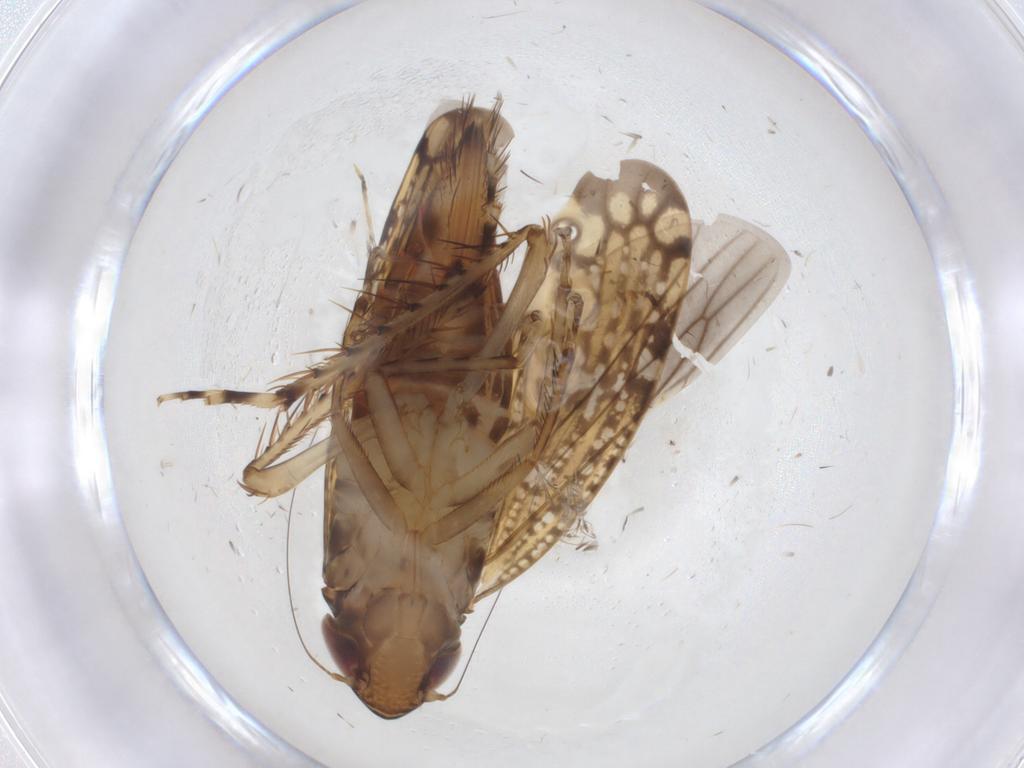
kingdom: Animalia
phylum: Arthropoda
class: Insecta
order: Hemiptera
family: Cicadellidae
